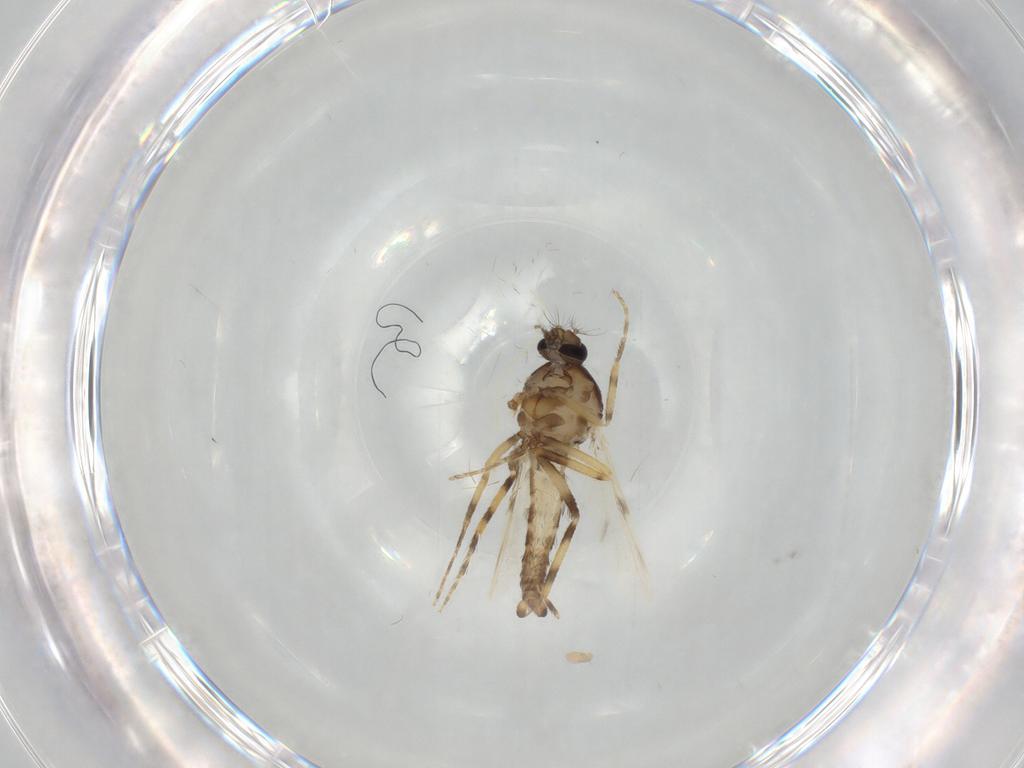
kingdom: Animalia
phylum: Arthropoda
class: Insecta
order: Diptera
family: Ceratopogonidae
